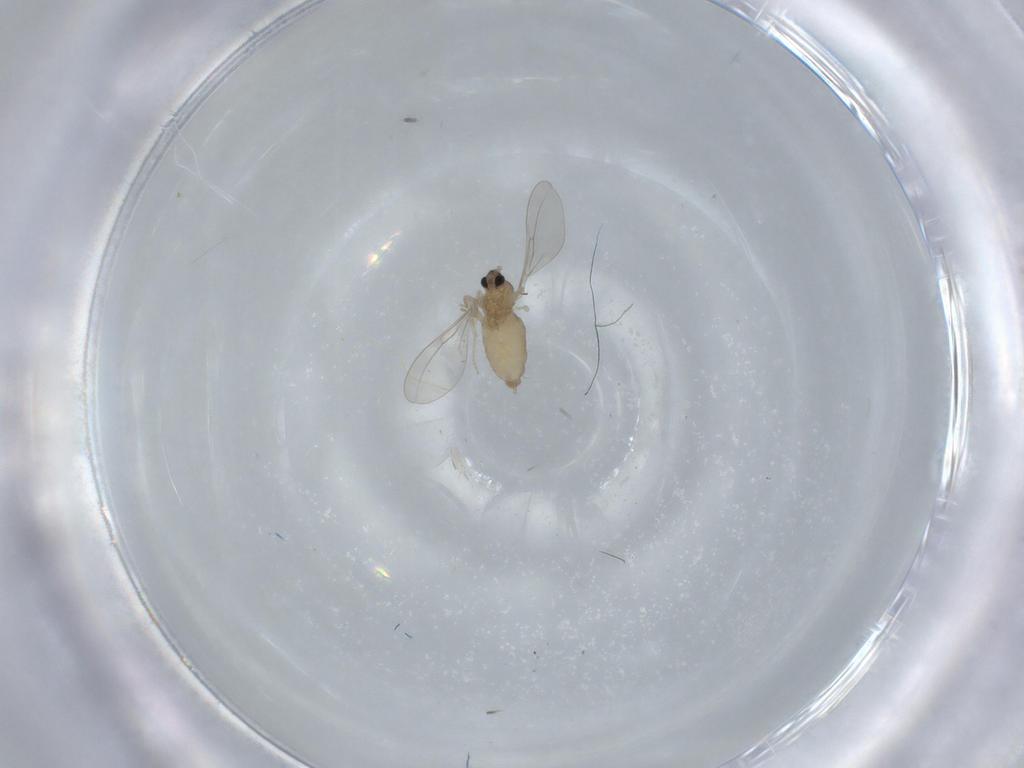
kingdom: Animalia
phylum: Arthropoda
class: Insecta
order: Diptera
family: Cecidomyiidae
